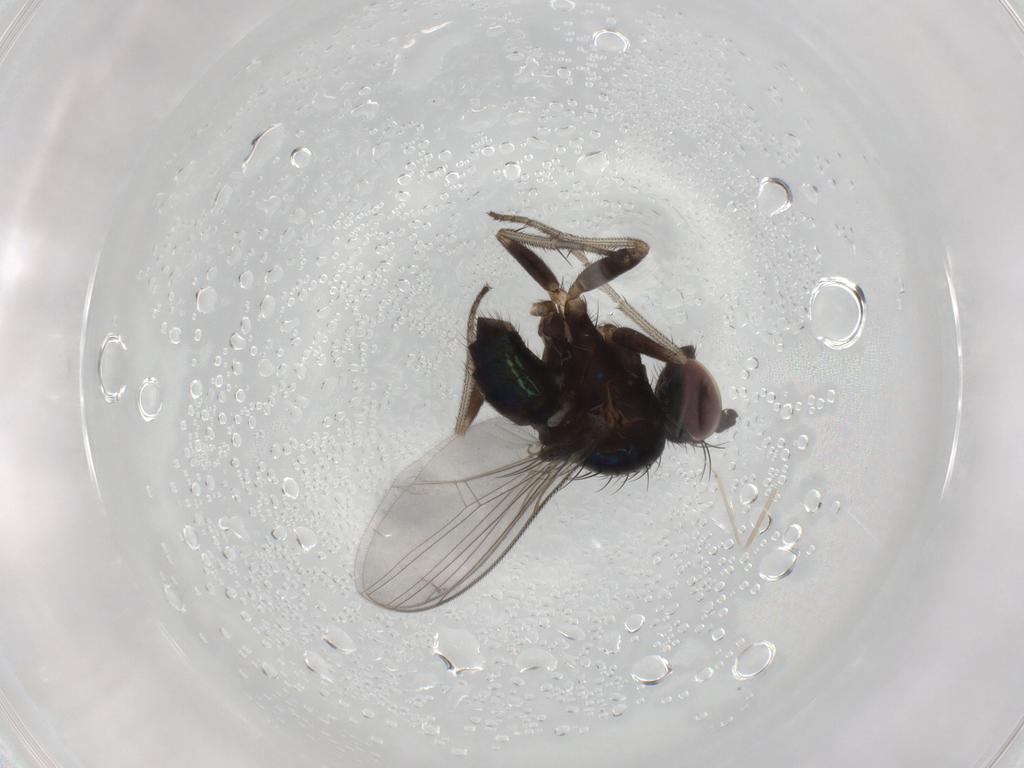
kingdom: Animalia
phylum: Arthropoda
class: Insecta
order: Diptera
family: Dolichopodidae
